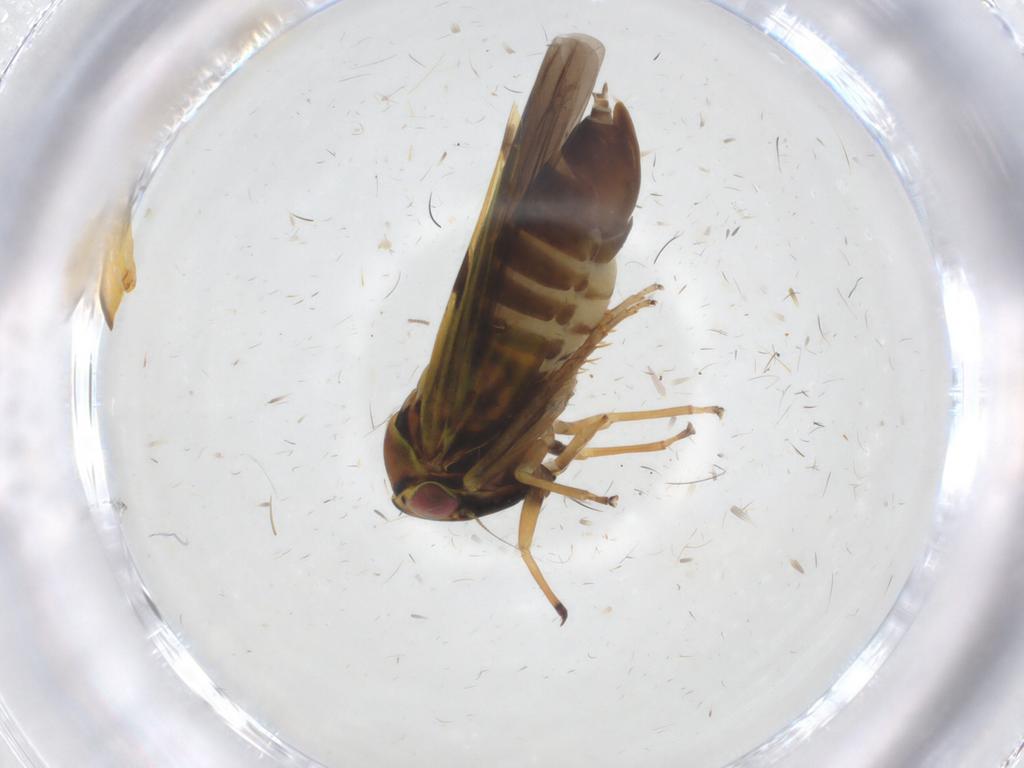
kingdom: Animalia
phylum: Arthropoda
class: Insecta
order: Hemiptera
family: Cicadellidae
